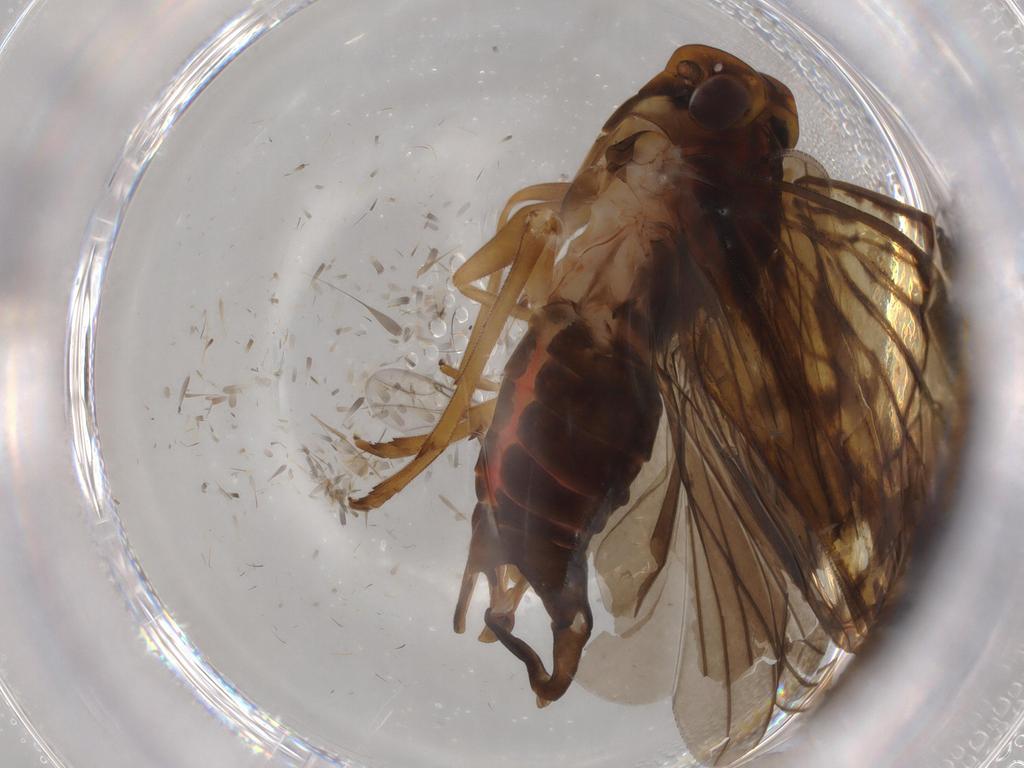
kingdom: Animalia
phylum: Arthropoda
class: Insecta
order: Hemiptera
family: Cixiidae
